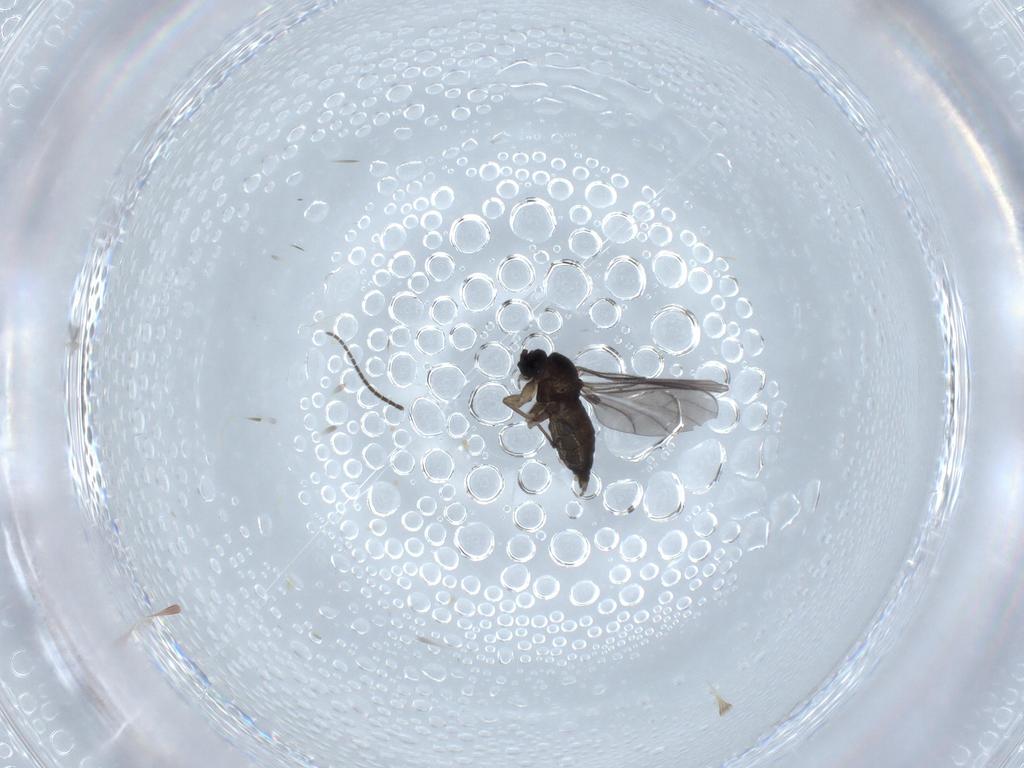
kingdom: Animalia
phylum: Arthropoda
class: Insecta
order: Diptera
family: Sciaridae
